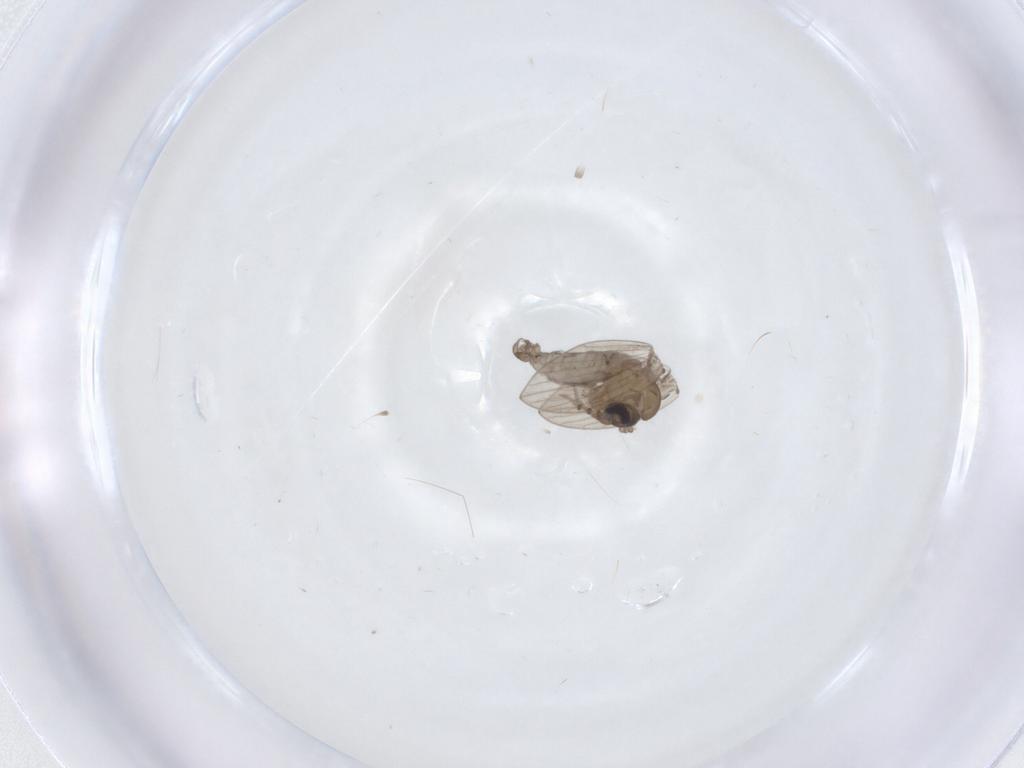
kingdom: Animalia
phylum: Arthropoda
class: Insecta
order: Diptera
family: Psychodidae
